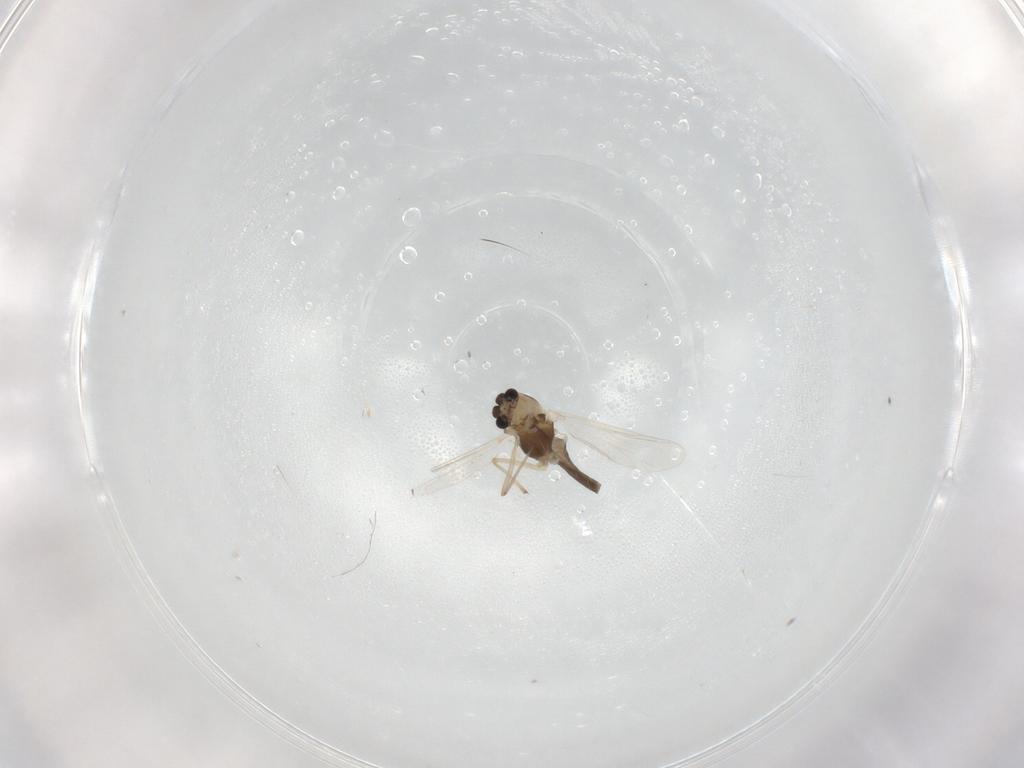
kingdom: Animalia
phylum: Arthropoda
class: Insecta
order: Diptera
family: Chironomidae
